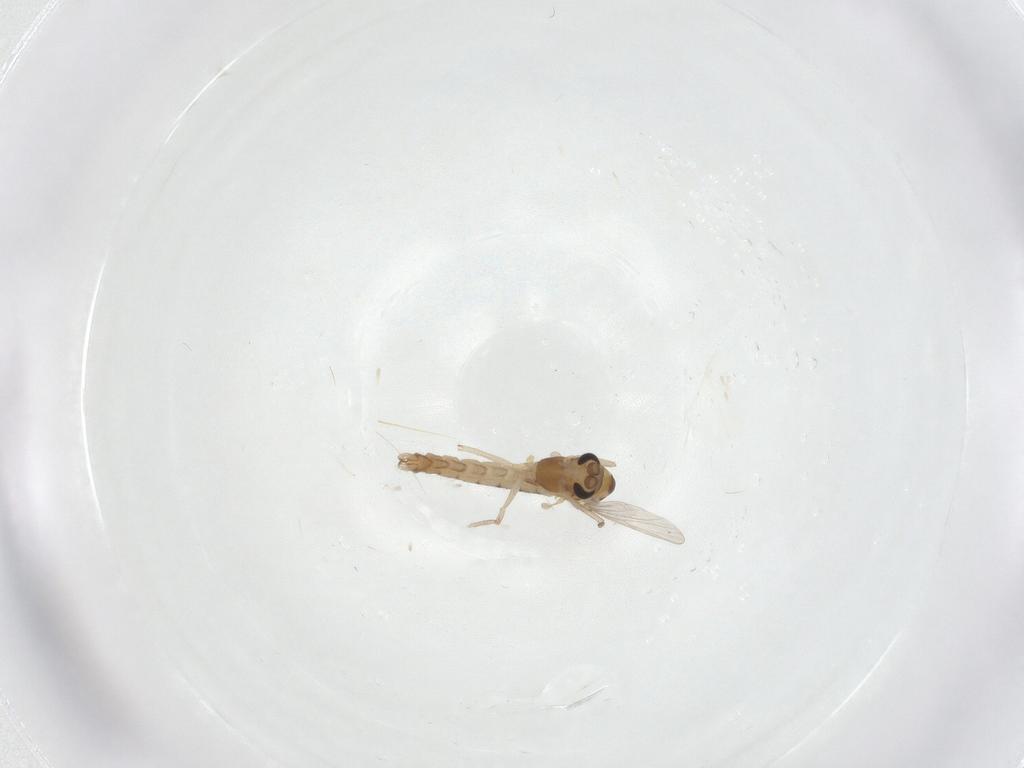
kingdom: Animalia
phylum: Arthropoda
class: Insecta
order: Diptera
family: Chironomidae
